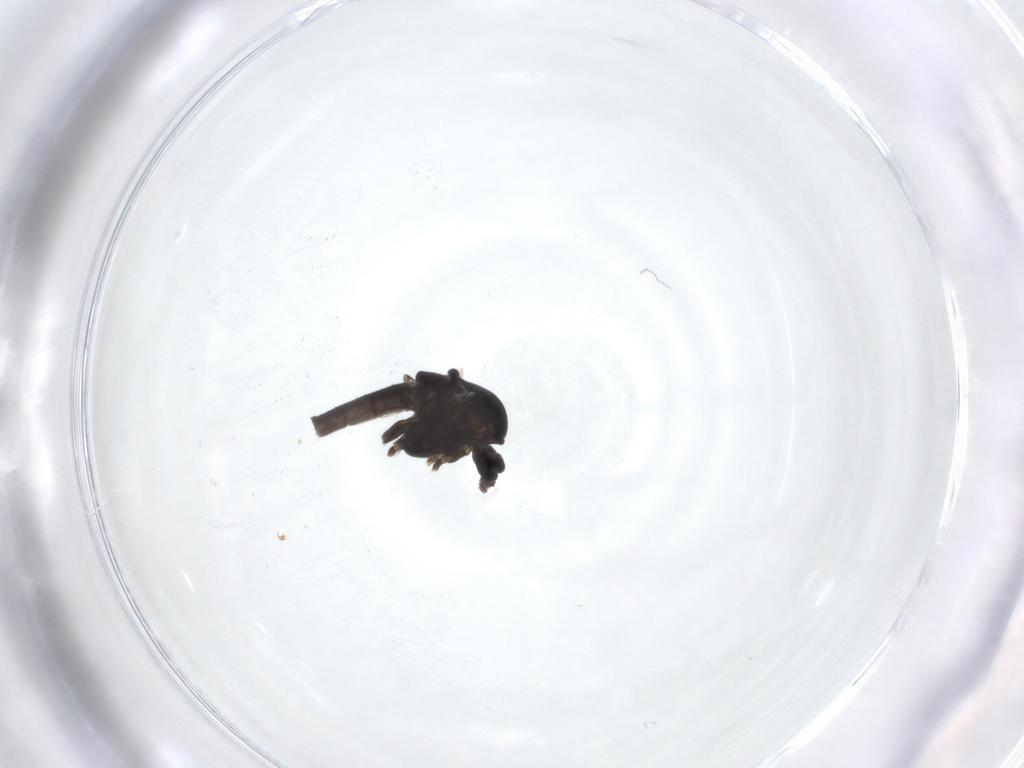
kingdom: Animalia
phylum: Arthropoda
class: Insecta
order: Diptera
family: Chironomidae
